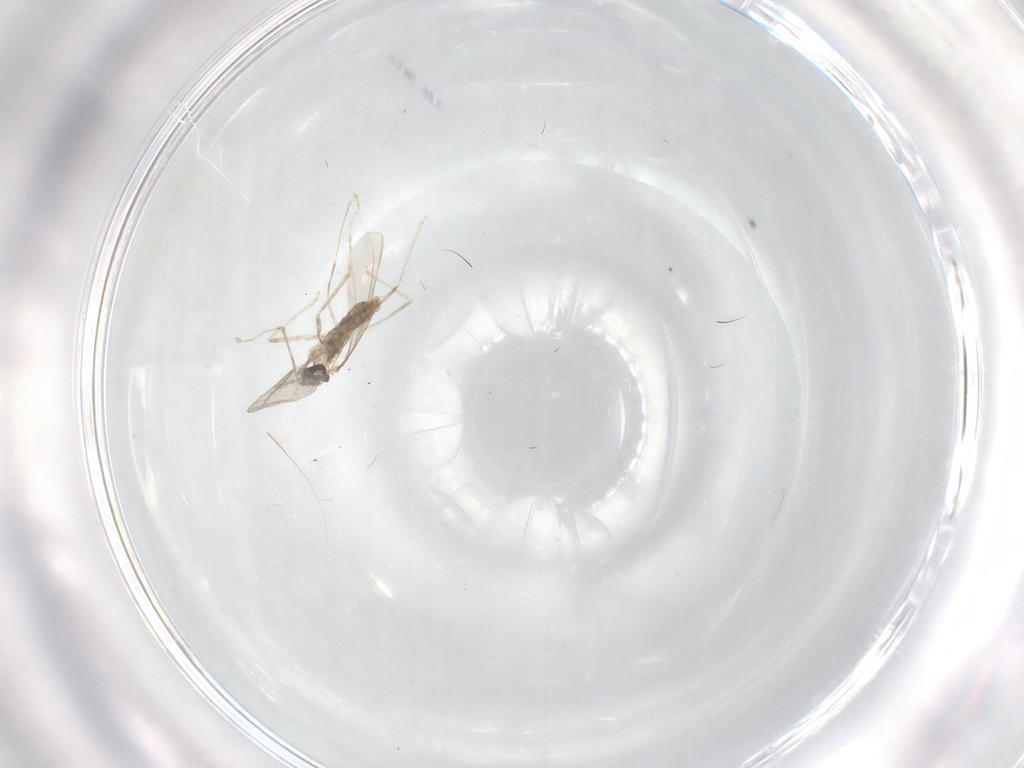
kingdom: Animalia
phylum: Arthropoda
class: Insecta
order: Diptera
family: Cecidomyiidae
